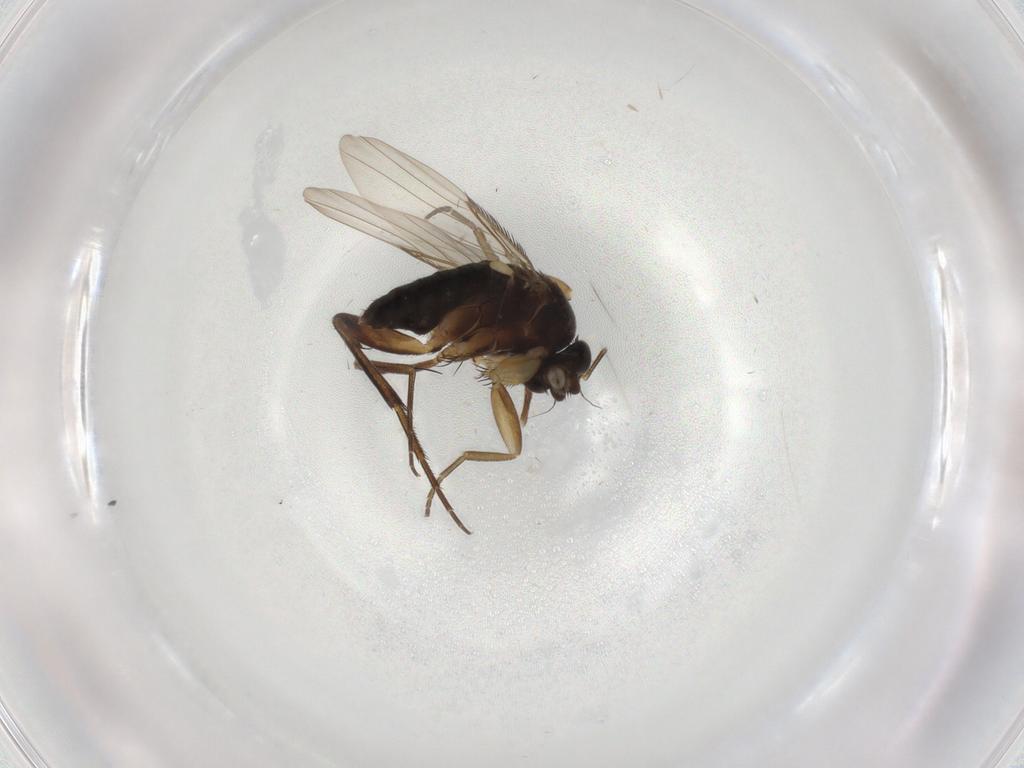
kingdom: Animalia
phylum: Arthropoda
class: Insecta
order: Diptera
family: Phoridae
